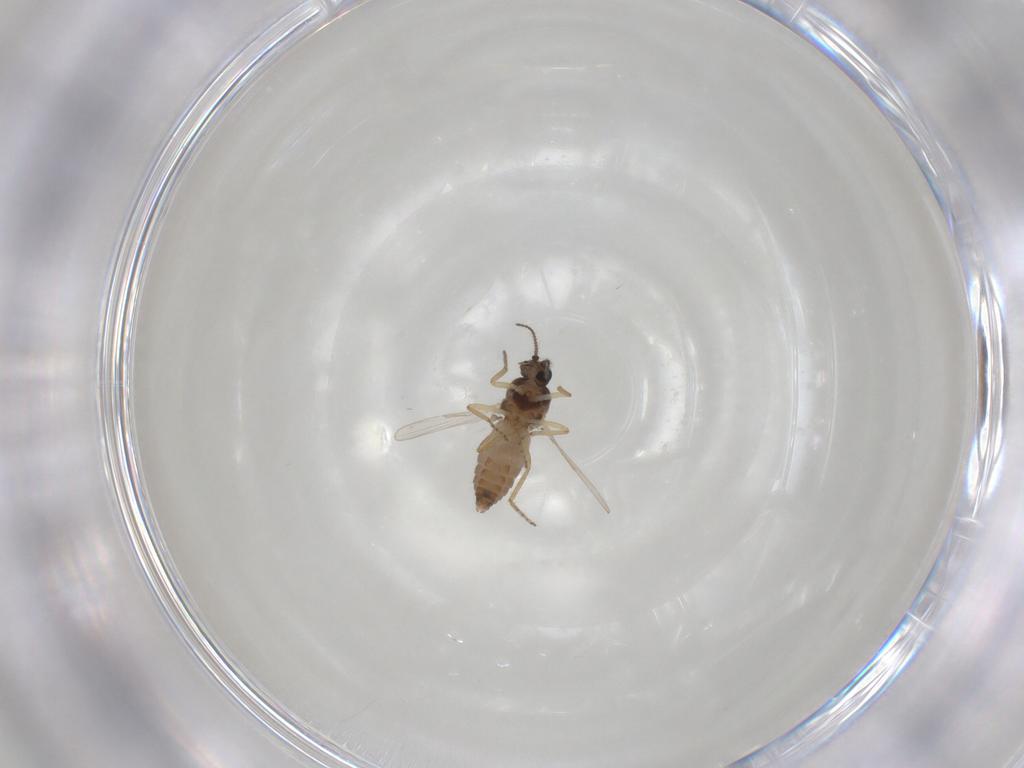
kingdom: Animalia
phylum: Arthropoda
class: Insecta
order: Diptera
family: Ceratopogonidae
